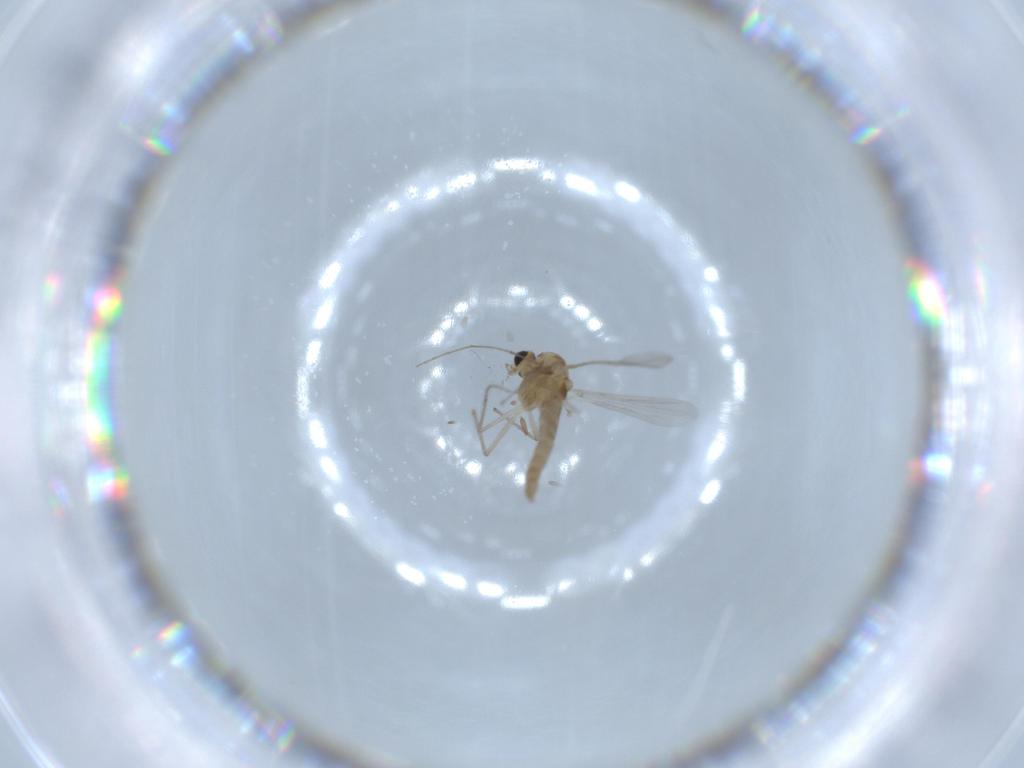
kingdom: Animalia
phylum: Arthropoda
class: Insecta
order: Diptera
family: Chironomidae
